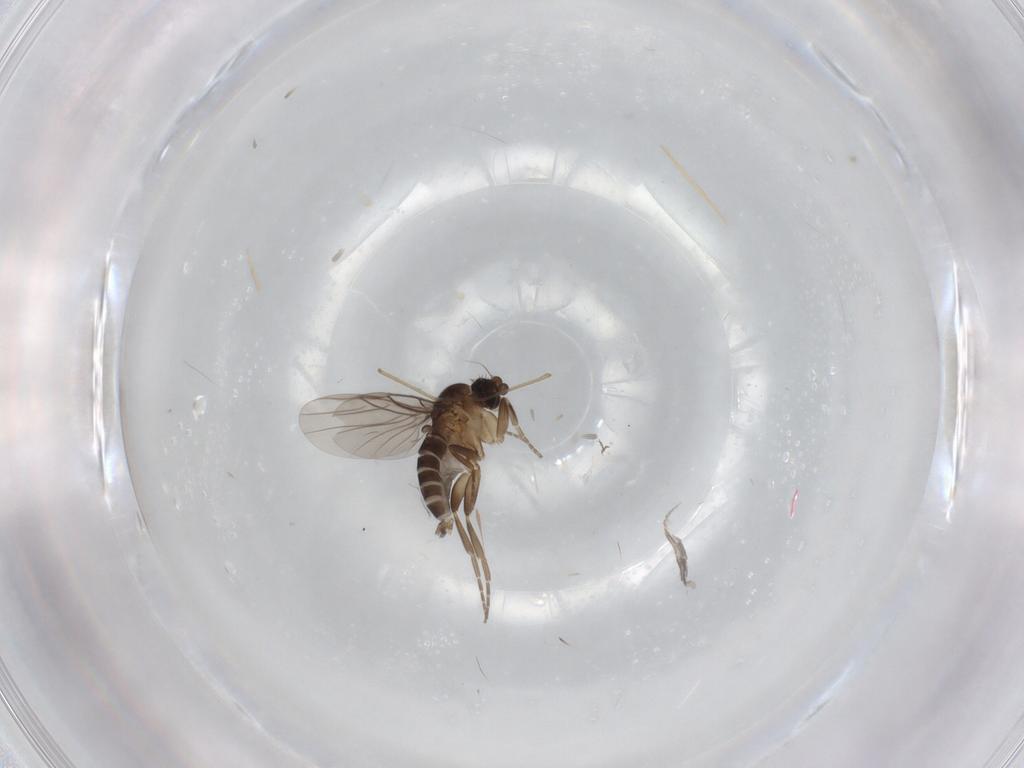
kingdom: Animalia
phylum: Arthropoda
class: Insecta
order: Diptera
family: Phoridae
